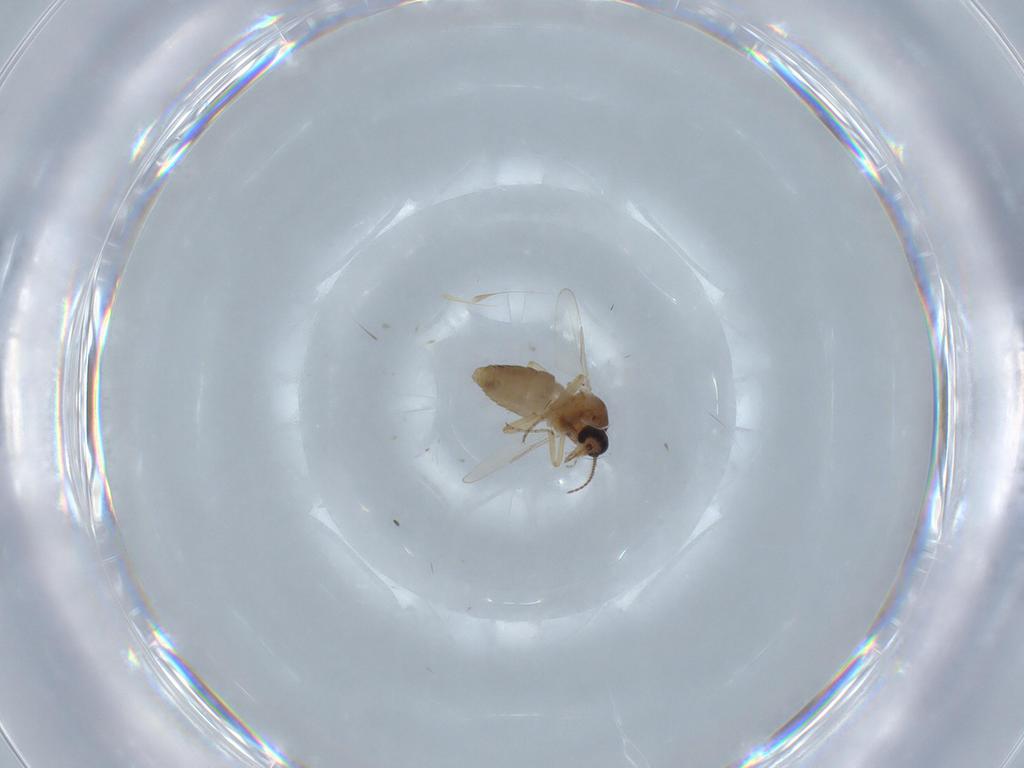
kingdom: Animalia
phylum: Arthropoda
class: Insecta
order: Diptera
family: Ceratopogonidae
